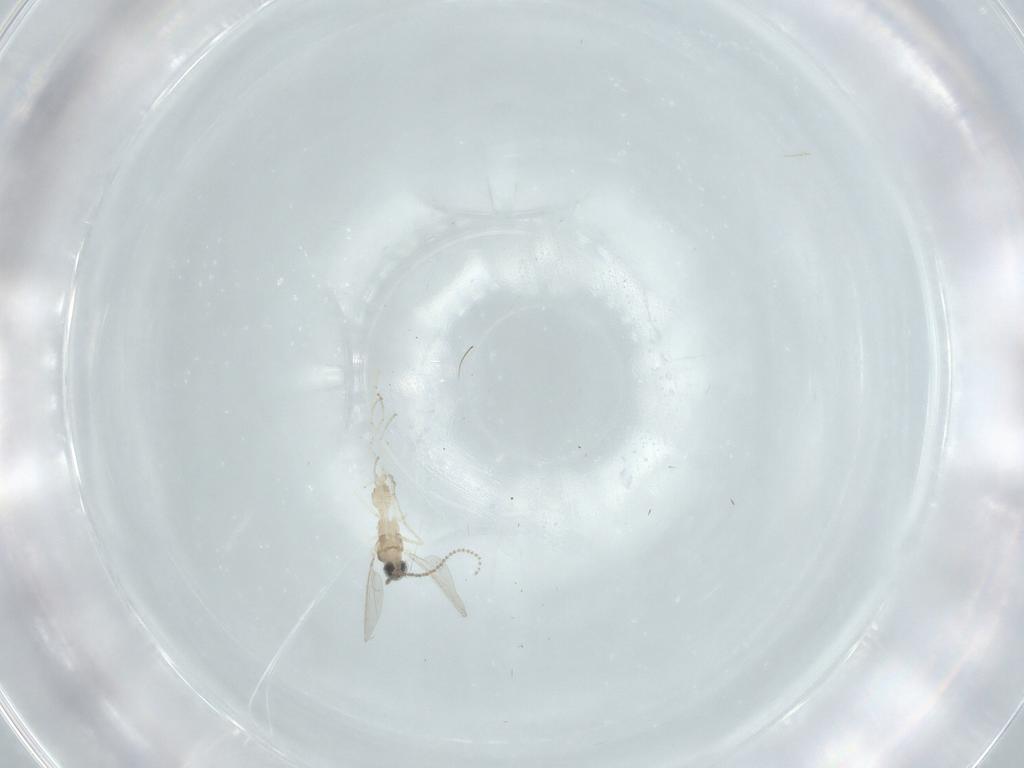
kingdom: Animalia
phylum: Arthropoda
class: Insecta
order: Diptera
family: Cecidomyiidae
